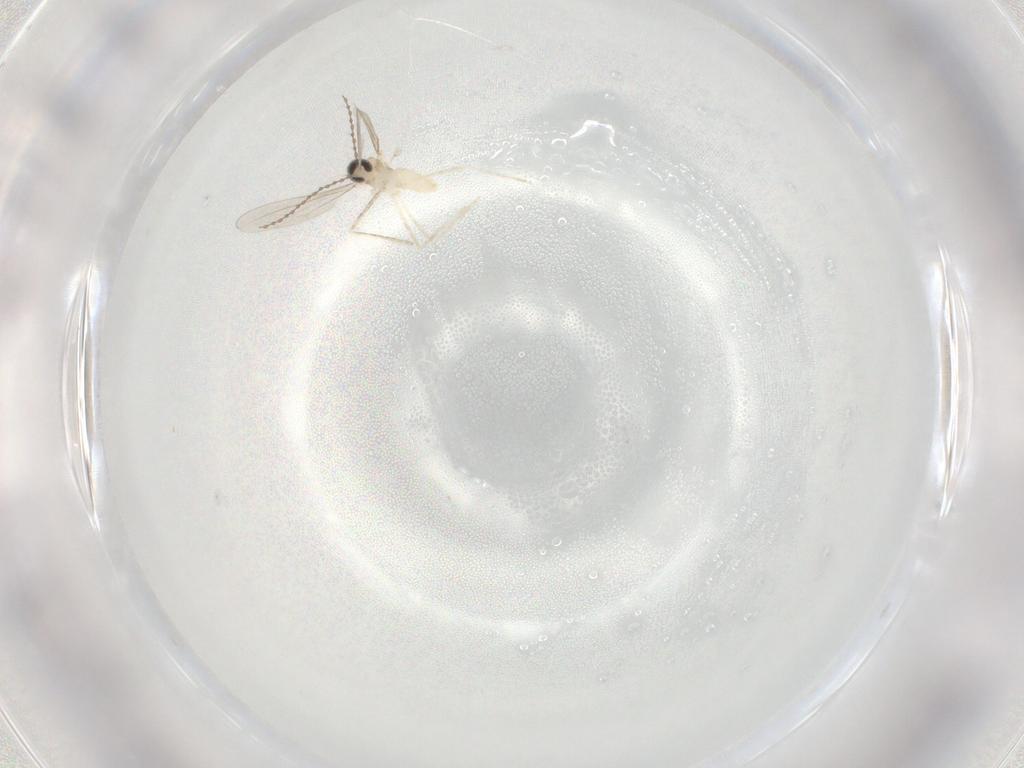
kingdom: Animalia
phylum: Arthropoda
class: Insecta
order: Diptera
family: Cecidomyiidae
